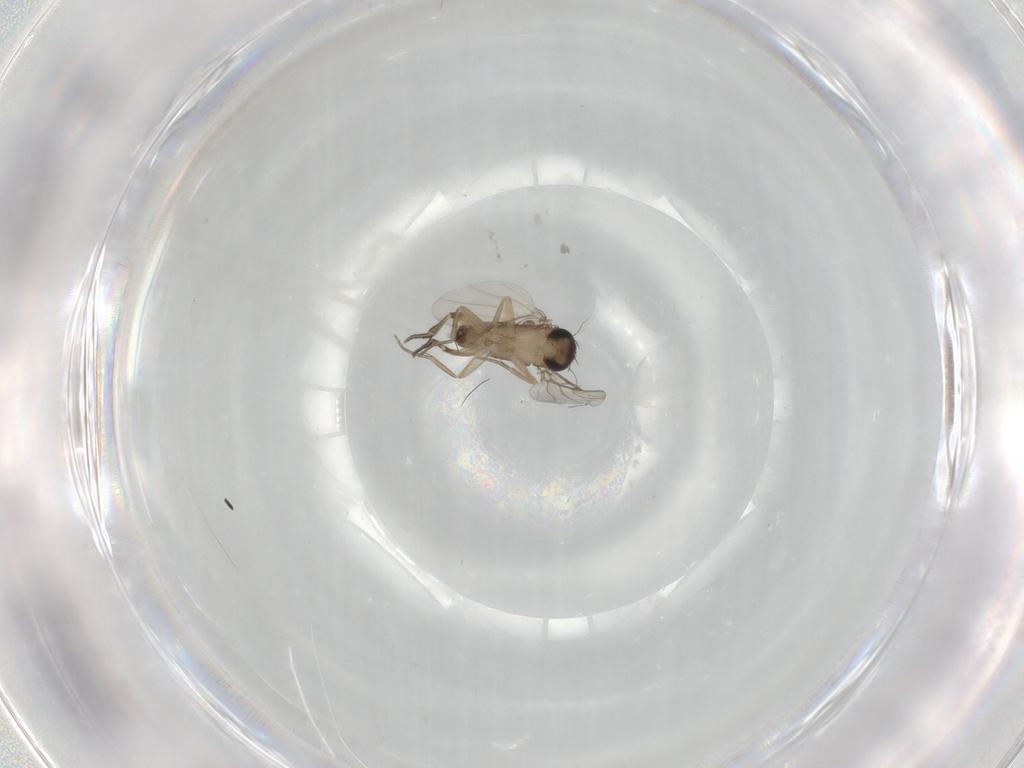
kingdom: Animalia
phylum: Arthropoda
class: Insecta
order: Diptera
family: Phoridae
